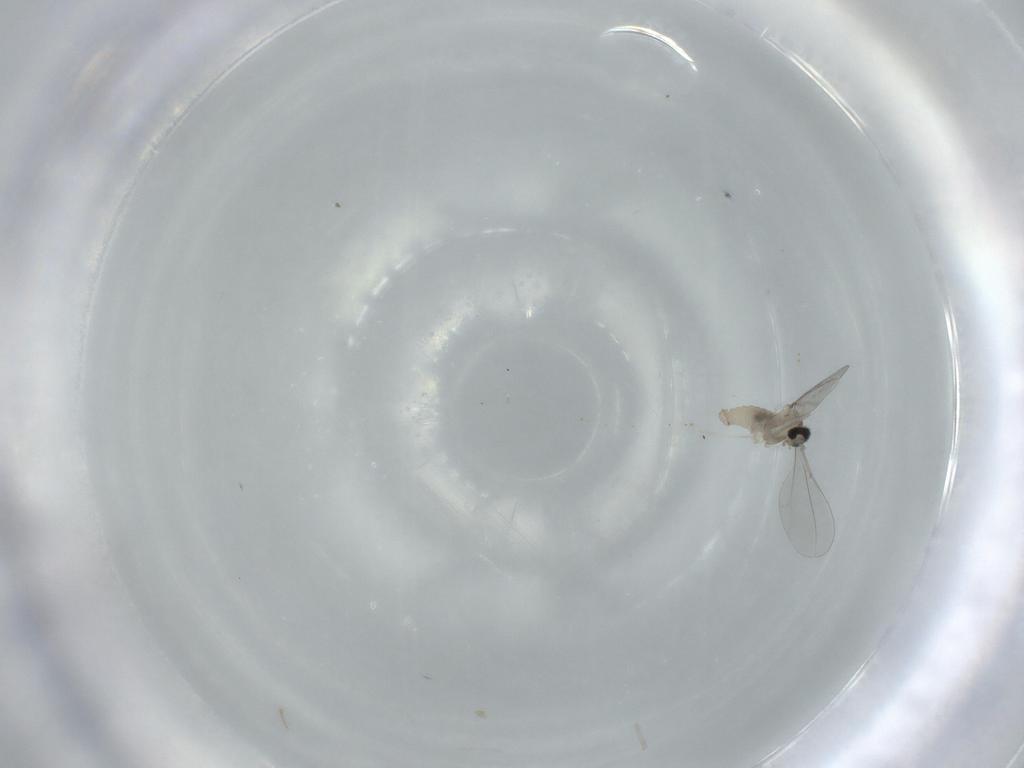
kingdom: Animalia
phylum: Arthropoda
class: Insecta
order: Diptera
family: Cecidomyiidae
